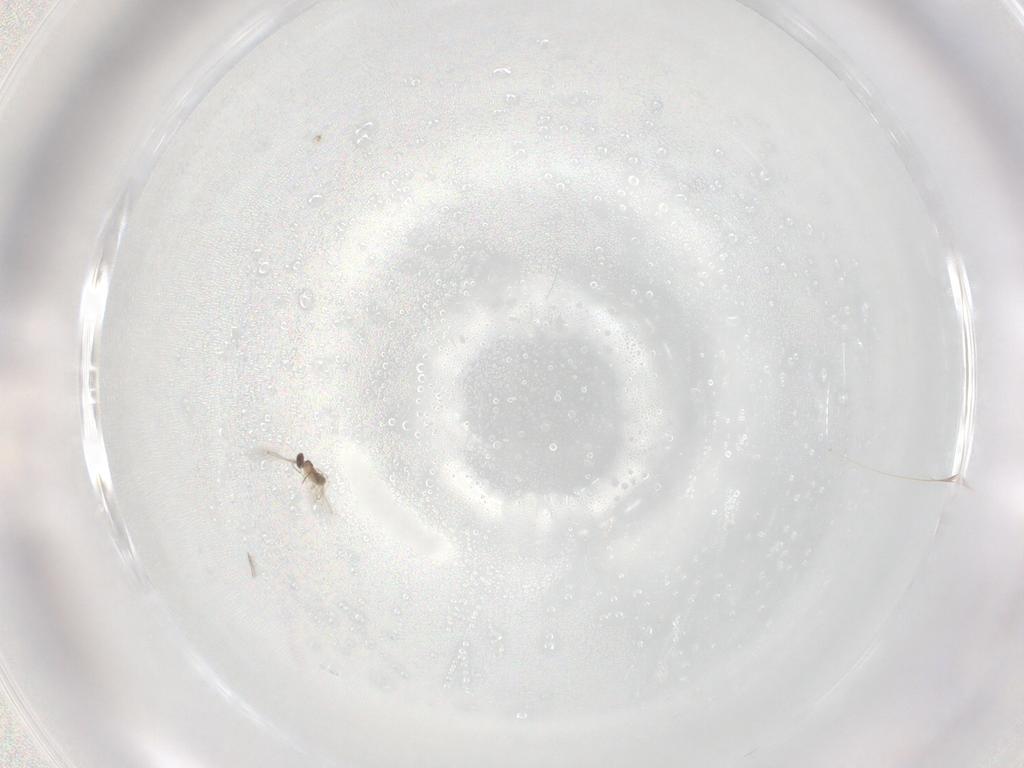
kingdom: Animalia
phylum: Arthropoda
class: Insecta
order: Diptera
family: Chironomidae
